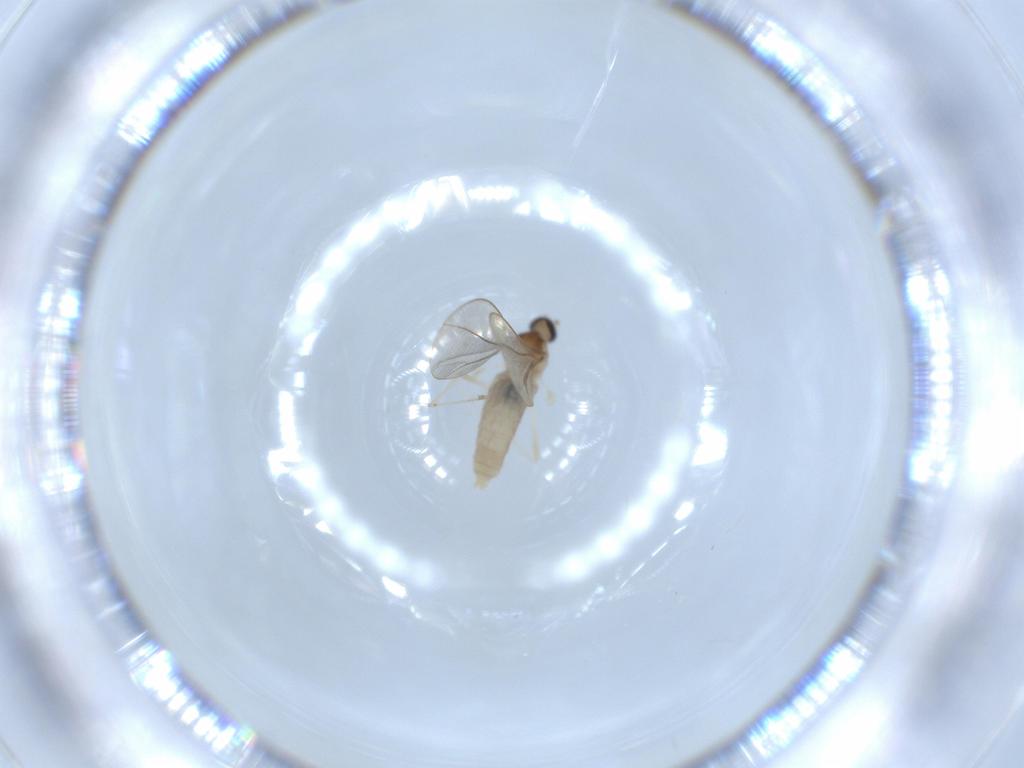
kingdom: Animalia
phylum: Arthropoda
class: Insecta
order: Diptera
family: Cecidomyiidae
